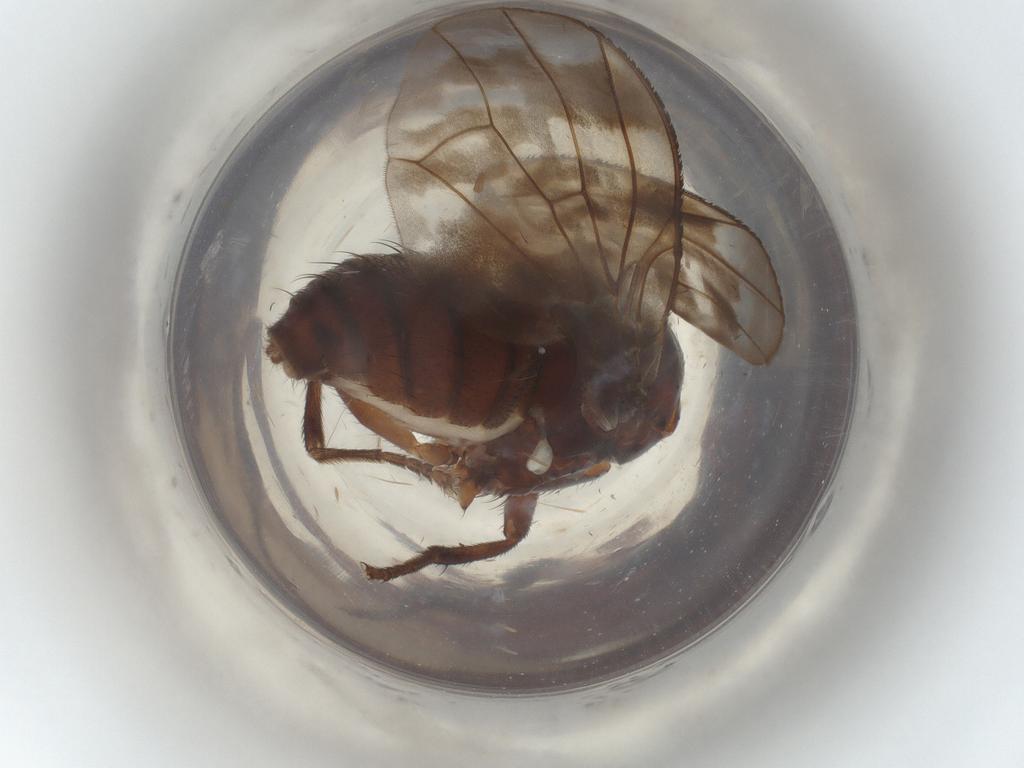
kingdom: Animalia
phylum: Arthropoda
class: Insecta
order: Diptera
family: Syrphidae
